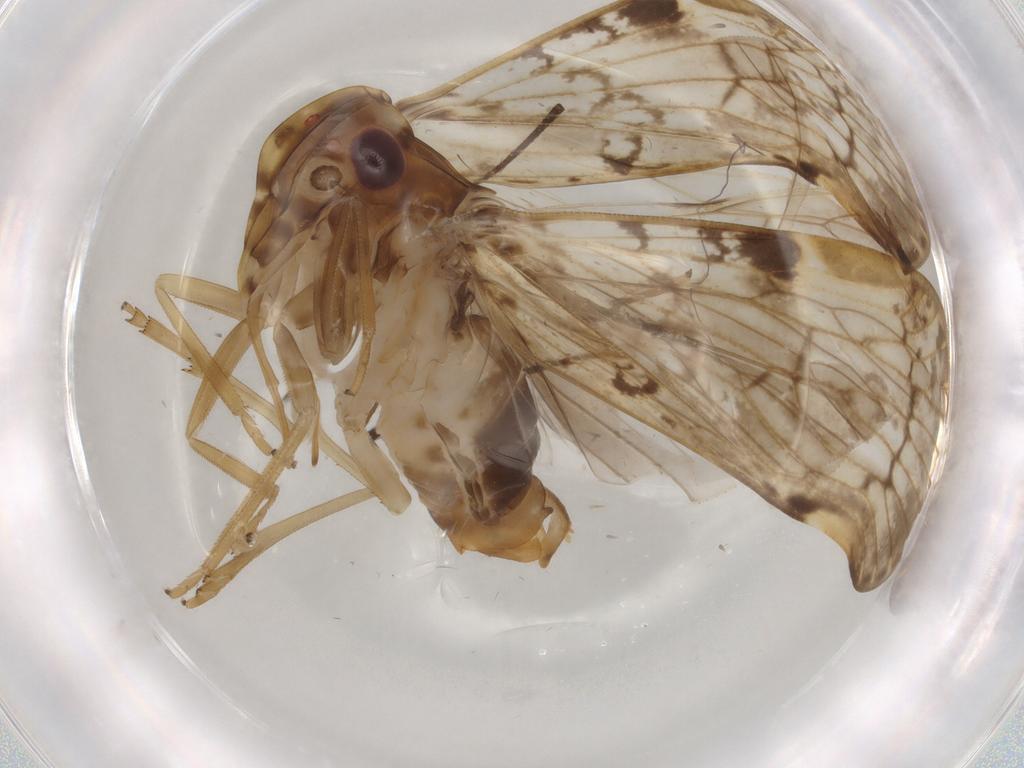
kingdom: Animalia
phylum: Arthropoda
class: Insecta
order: Hemiptera
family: Cixiidae
